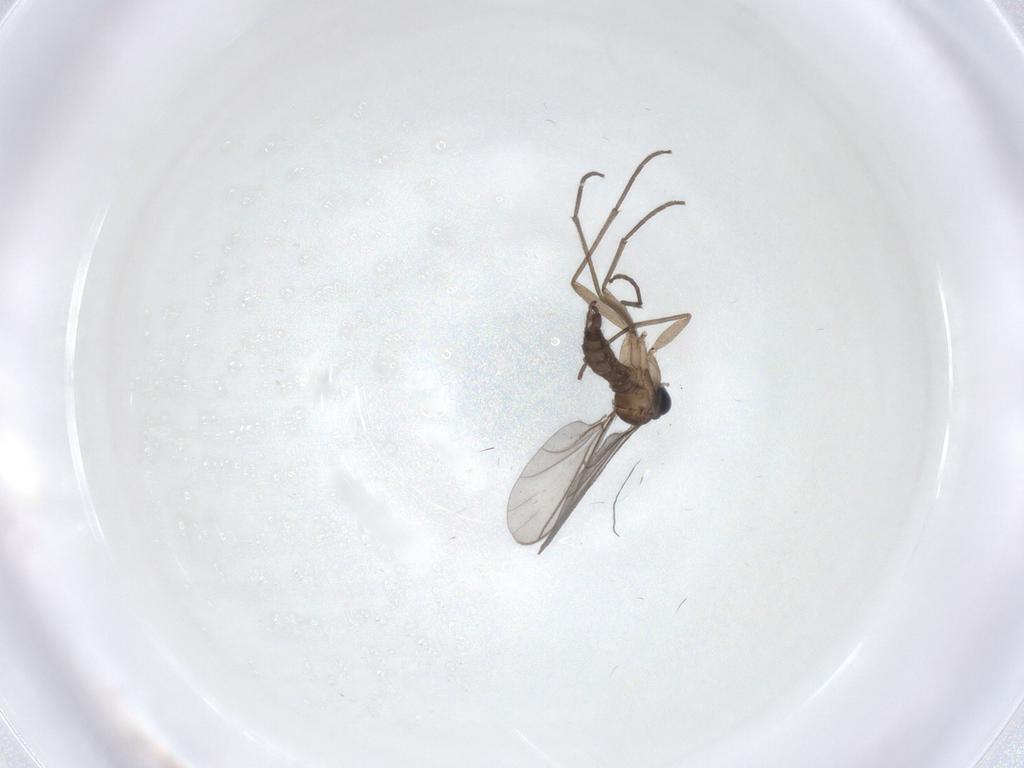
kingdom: Animalia
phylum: Arthropoda
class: Insecta
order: Diptera
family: Sciaridae
